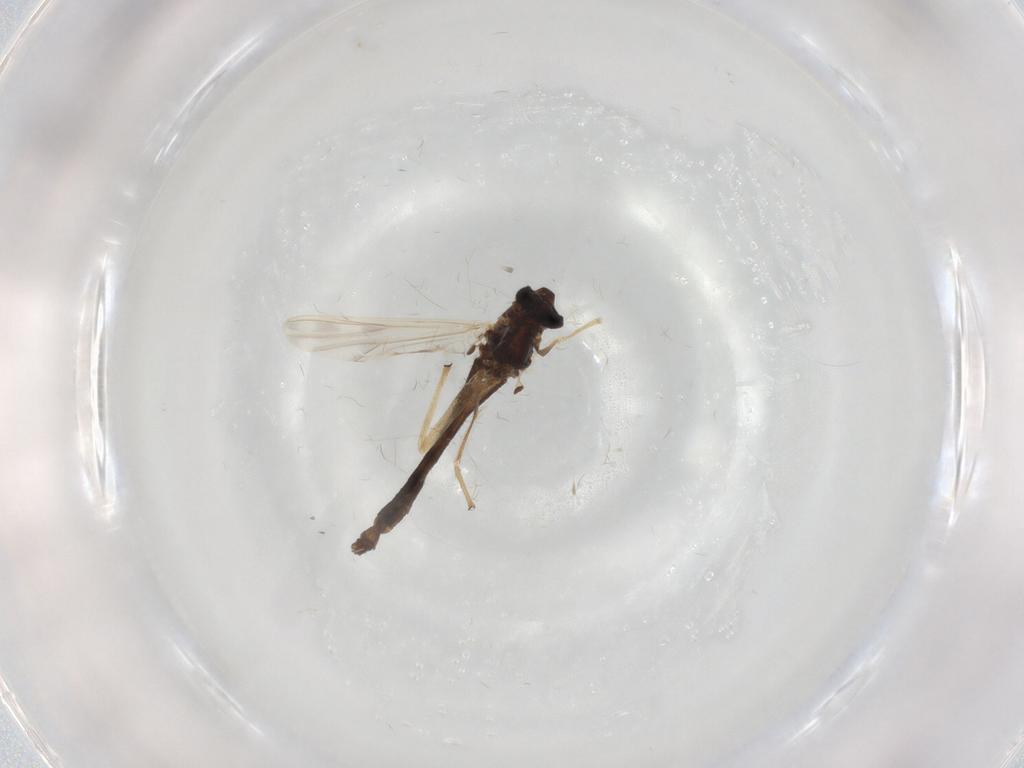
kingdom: Animalia
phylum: Arthropoda
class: Insecta
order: Diptera
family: Chironomidae
